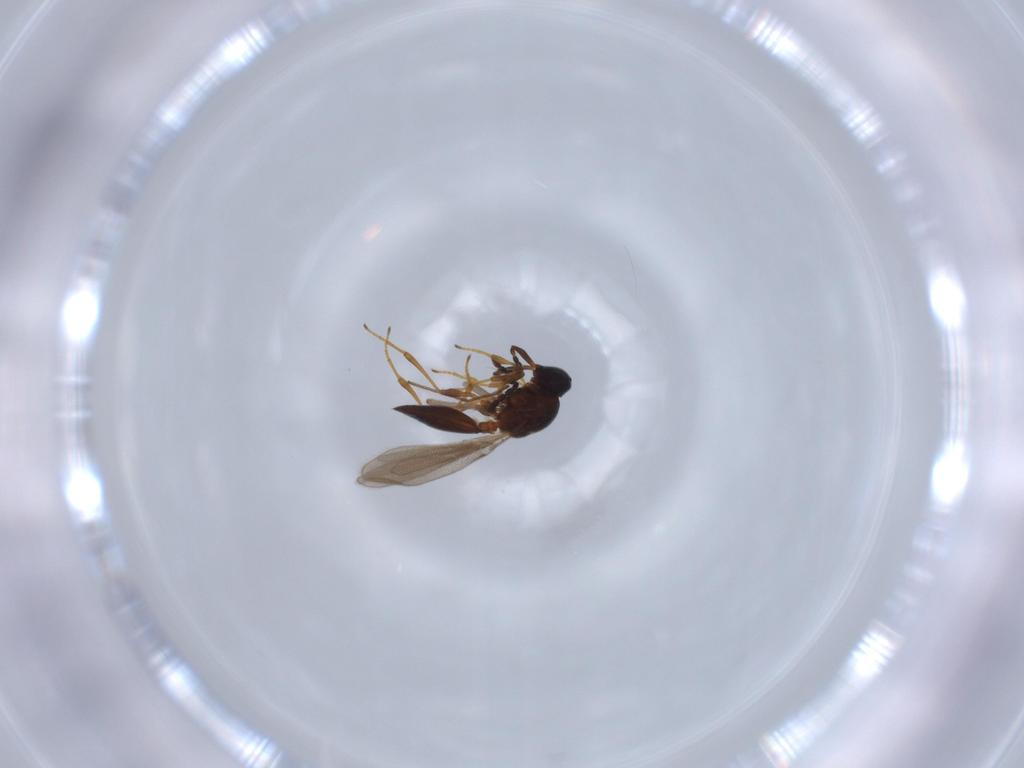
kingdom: Animalia
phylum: Arthropoda
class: Insecta
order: Hymenoptera
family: Platygastridae
